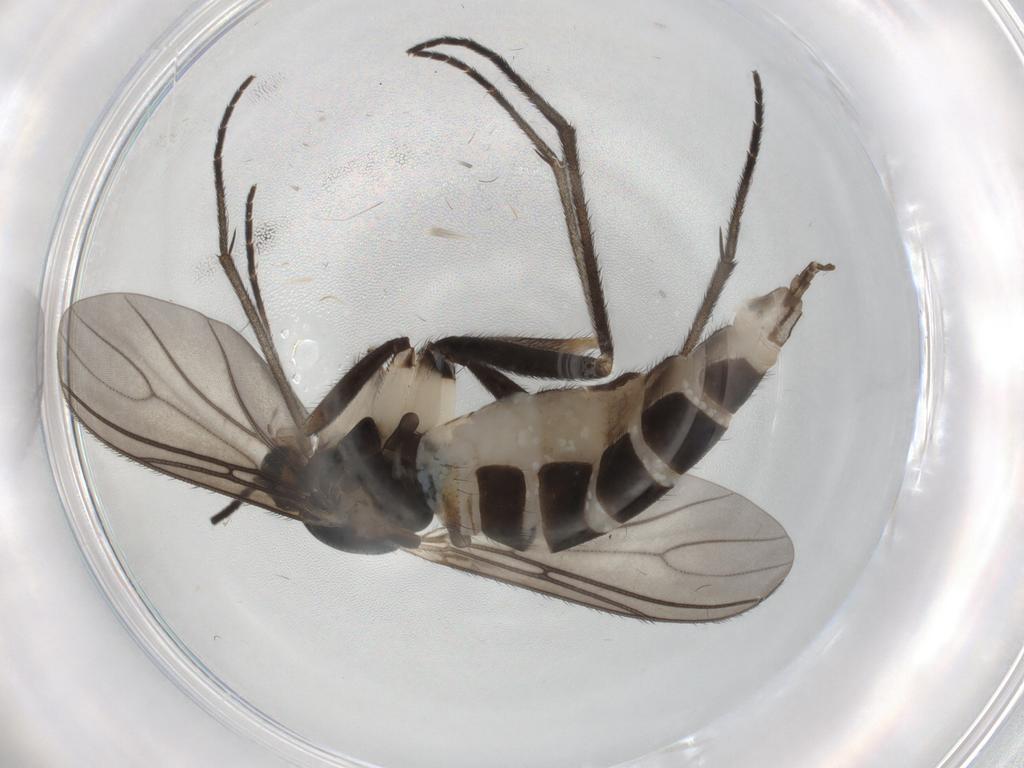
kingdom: Animalia
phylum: Arthropoda
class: Insecta
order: Diptera
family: Sciaridae
